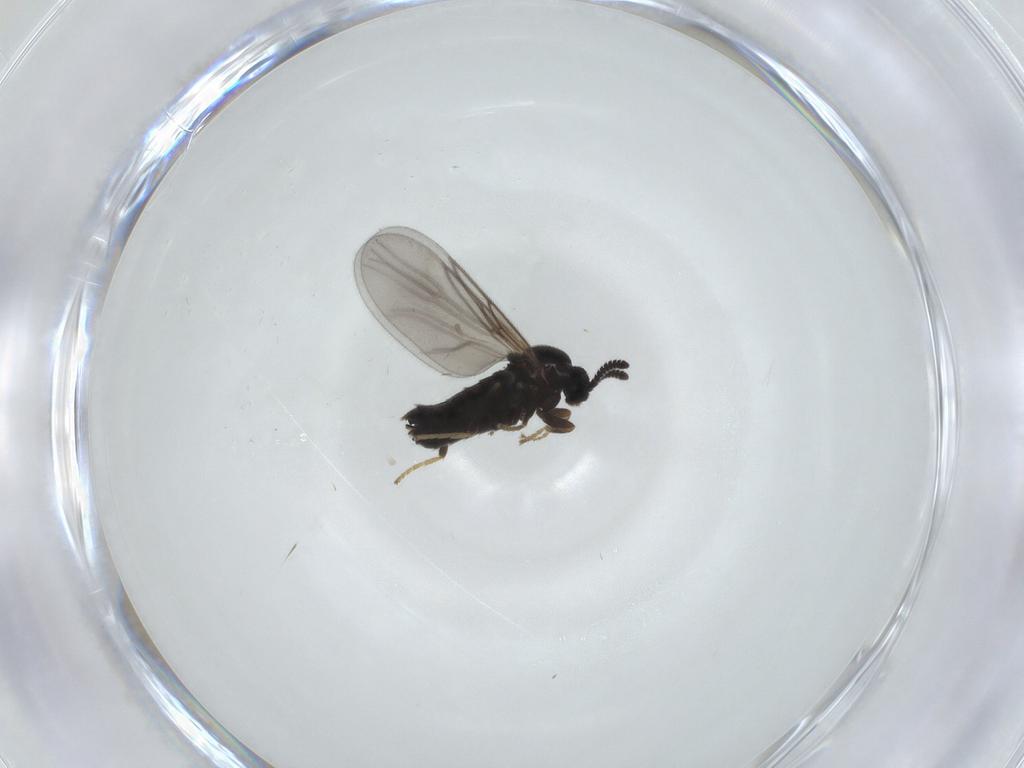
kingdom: Animalia
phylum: Arthropoda
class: Insecta
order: Diptera
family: Scatopsidae
